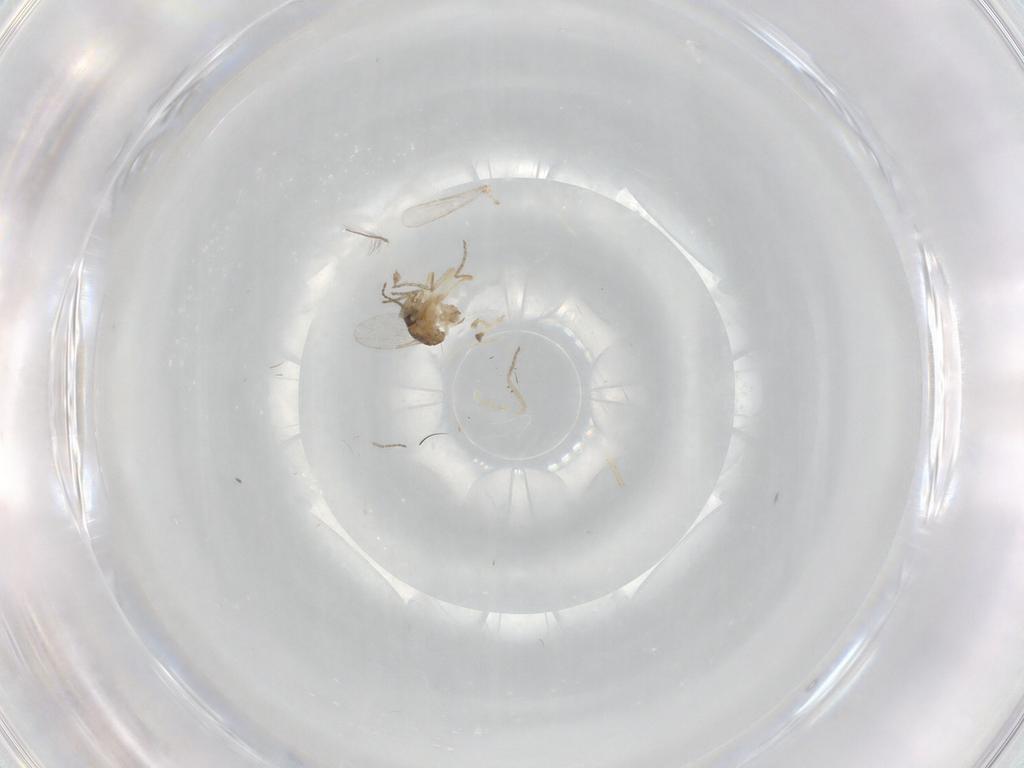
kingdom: Animalia
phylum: Arthropoda
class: Insecta
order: Diptera
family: Ceratopogonidae
